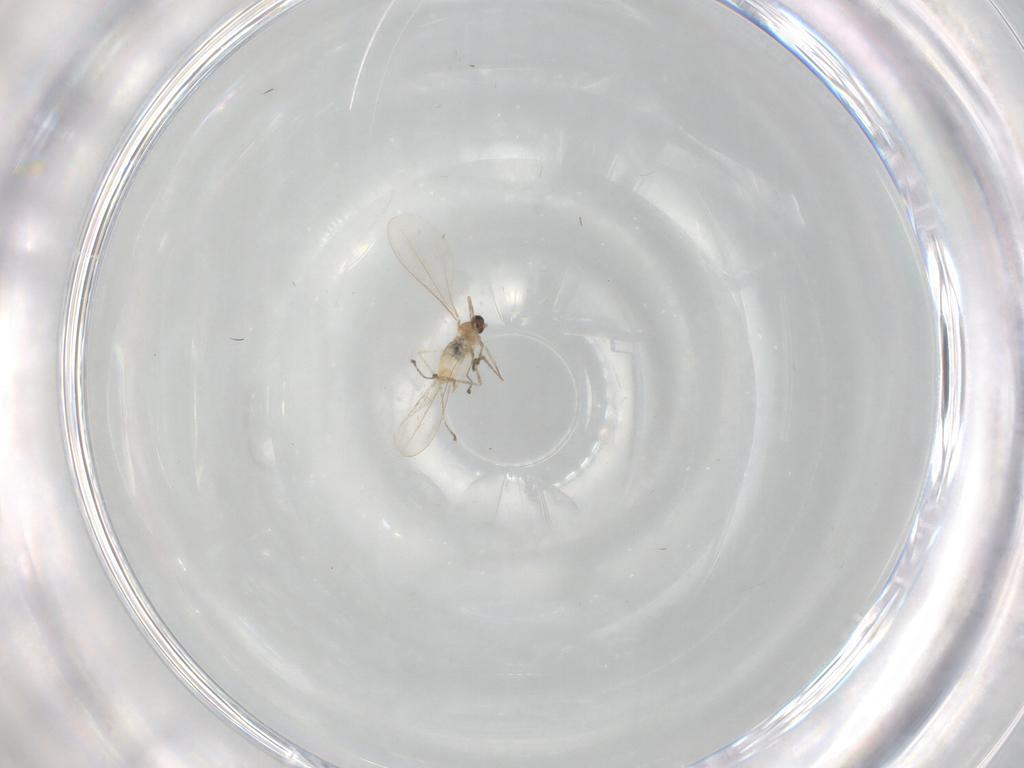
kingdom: Animalia
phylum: Arthropoda
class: Insecta
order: Diptera
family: Cecidomyiidae
